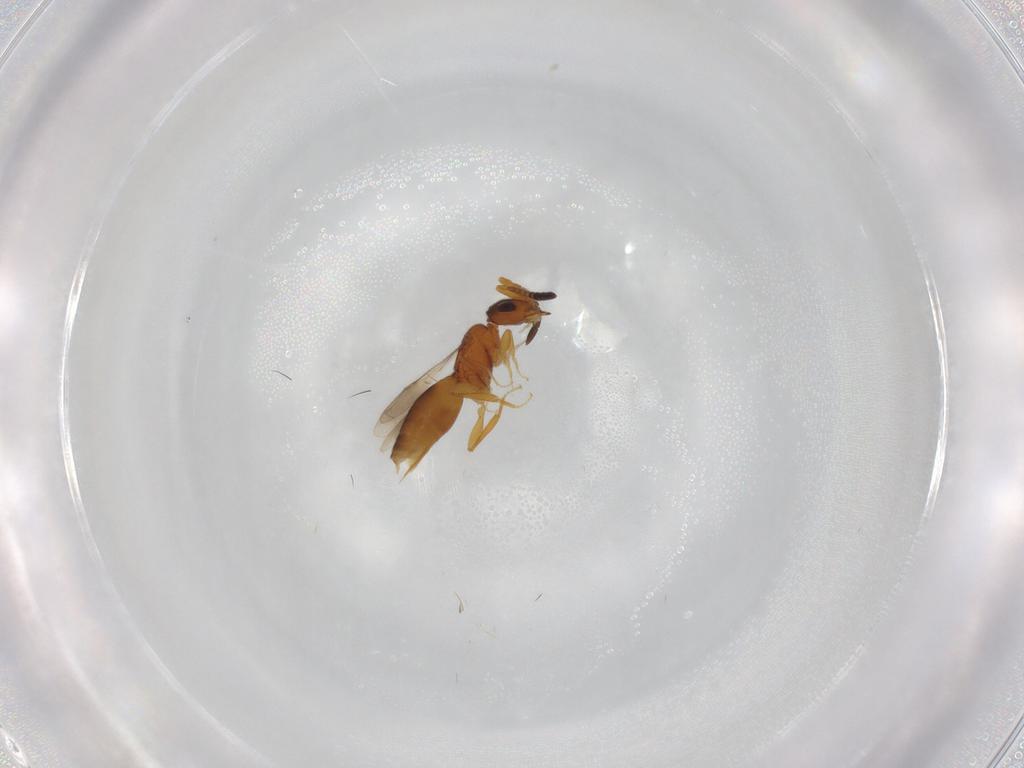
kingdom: Animalia
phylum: Arthropoda
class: Insecta
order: Hymenoptera
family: Ceraphronidae
